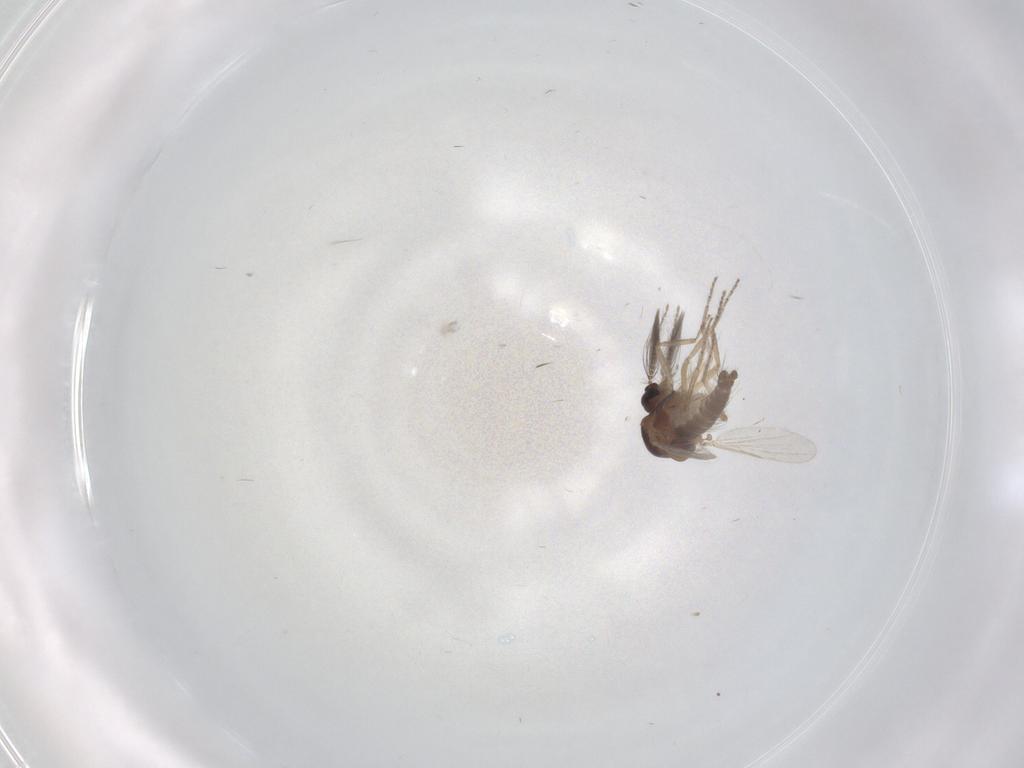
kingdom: Animalia
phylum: Arthropoda
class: Insecta
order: Diptera
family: Ceratopogonidae
